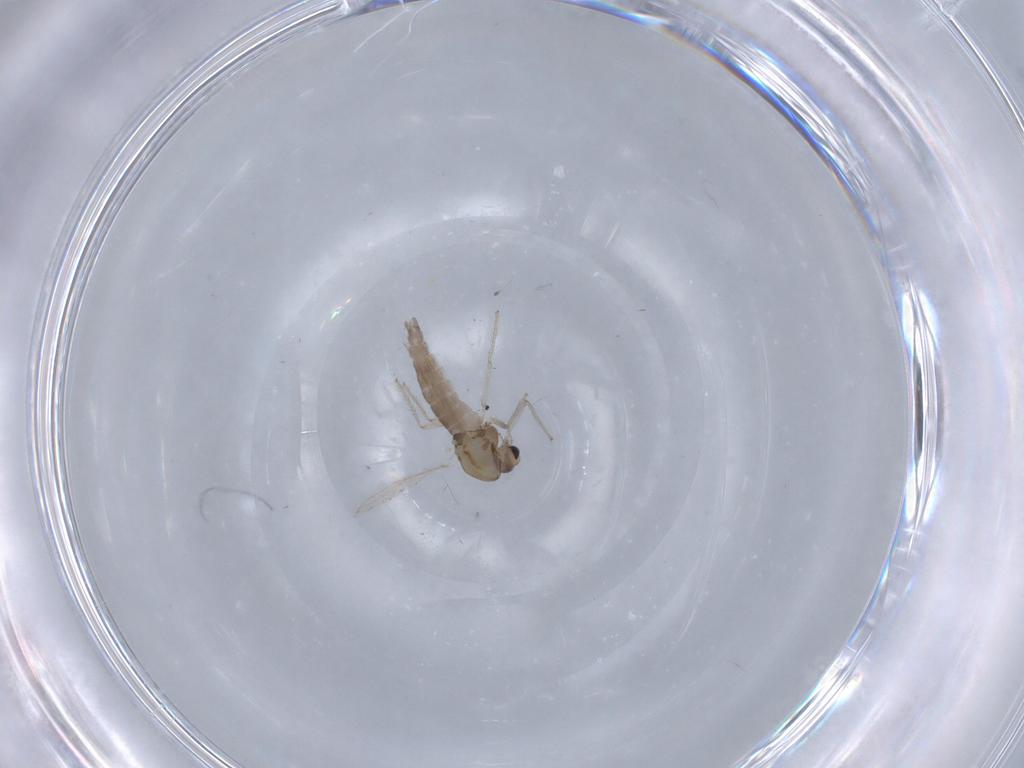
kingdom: Animalia
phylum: Arthropoda
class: Insecta
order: Diptera
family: Chironomidae
